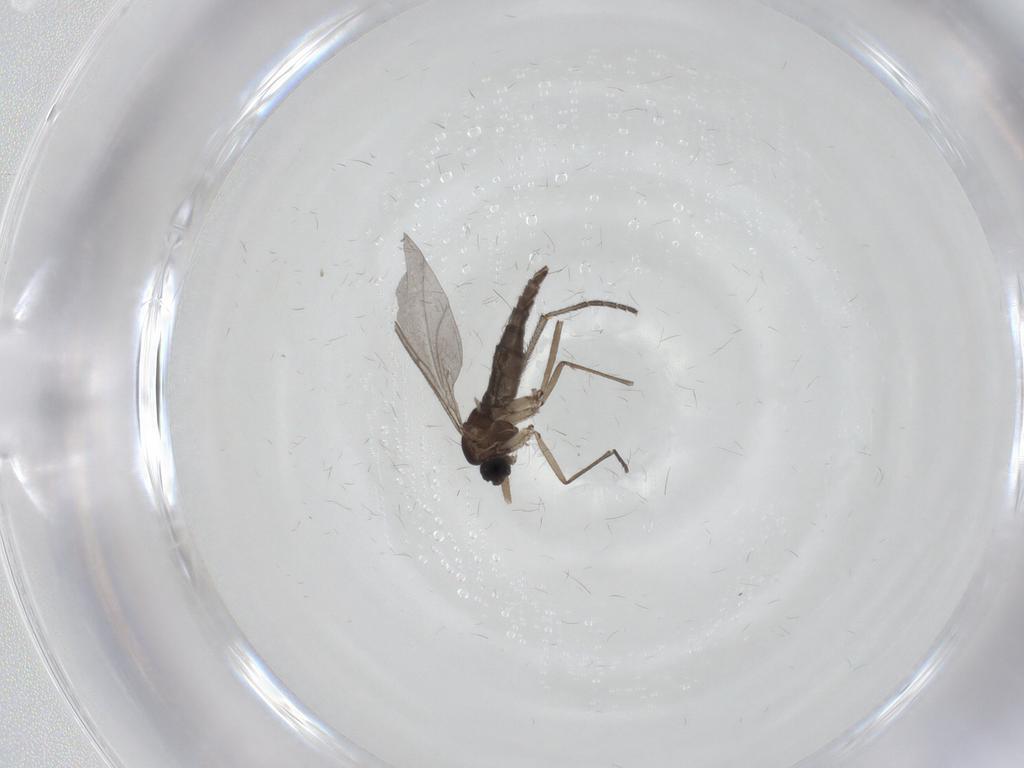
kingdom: Animalia
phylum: Arthropoda
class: Insecta
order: Diptera
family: Sciaridae
